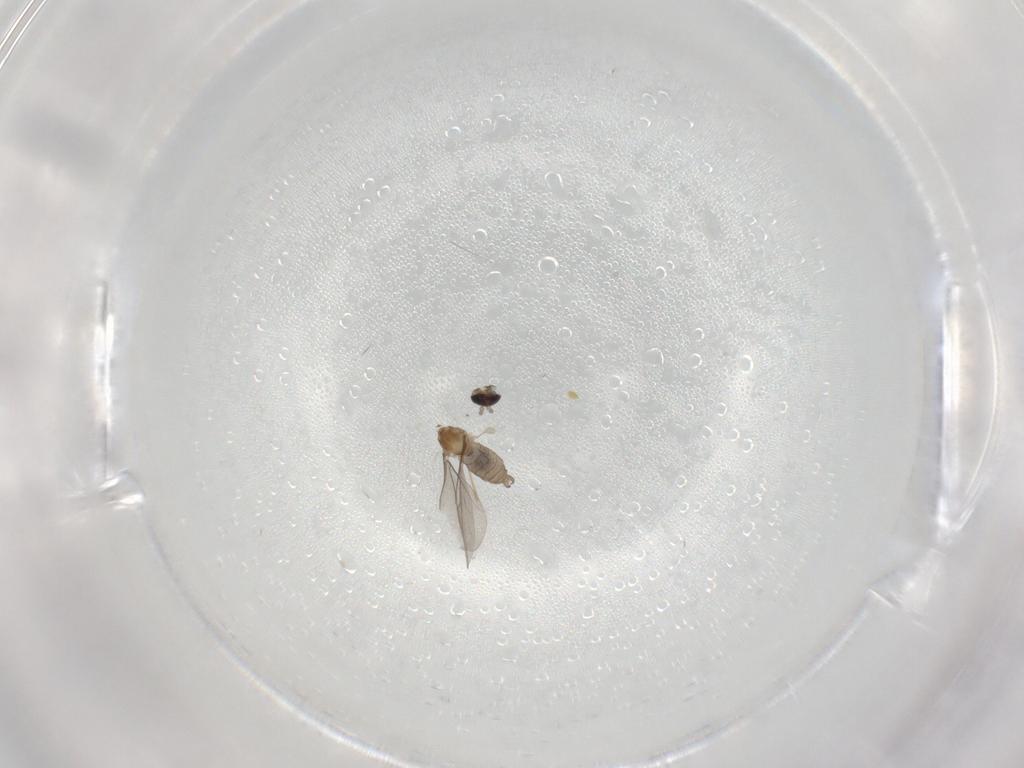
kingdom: Animalia
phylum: Arthropoda
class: Insecta
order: Diptera
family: Cecidomyiidae
